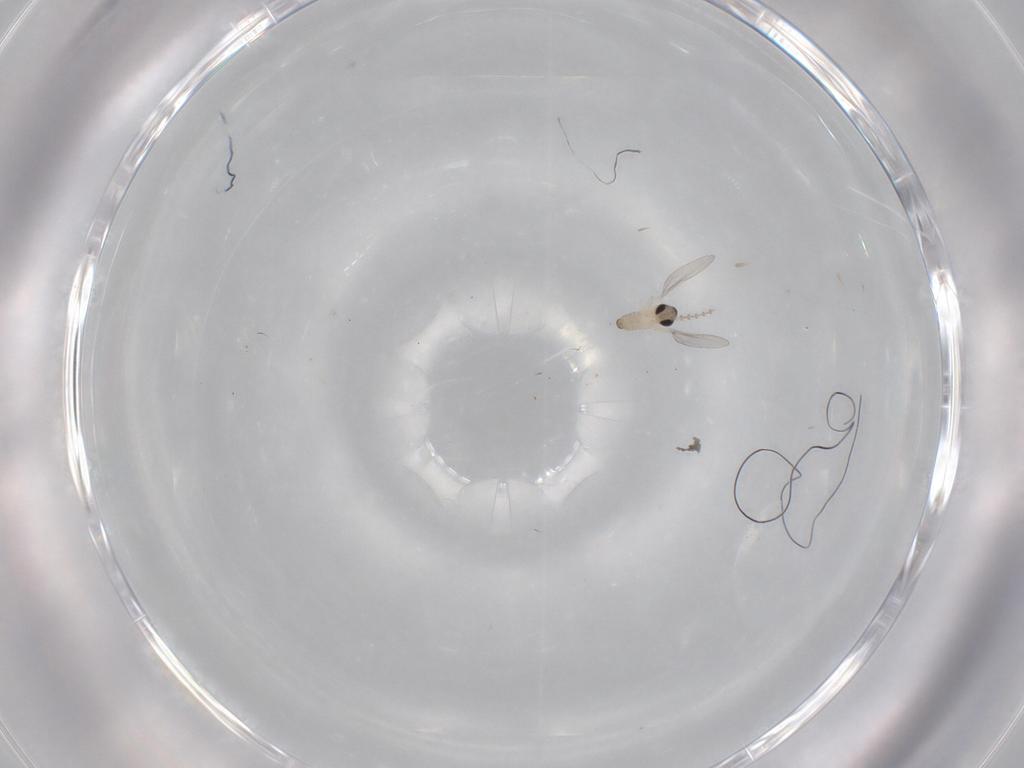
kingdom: Animalia
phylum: Arthropoda
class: Insecta
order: Diptera
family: Cecidomyiidae
